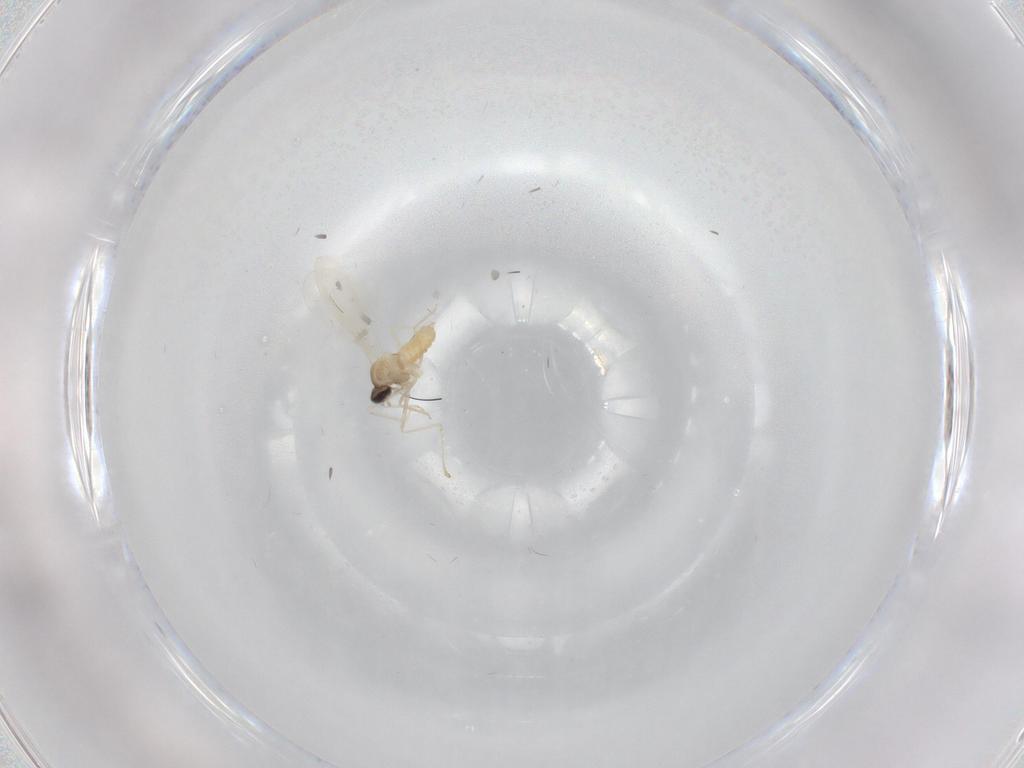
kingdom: Animalia
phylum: Arthropoda
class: Insecta
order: Diptera
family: Cecidomyiidae
